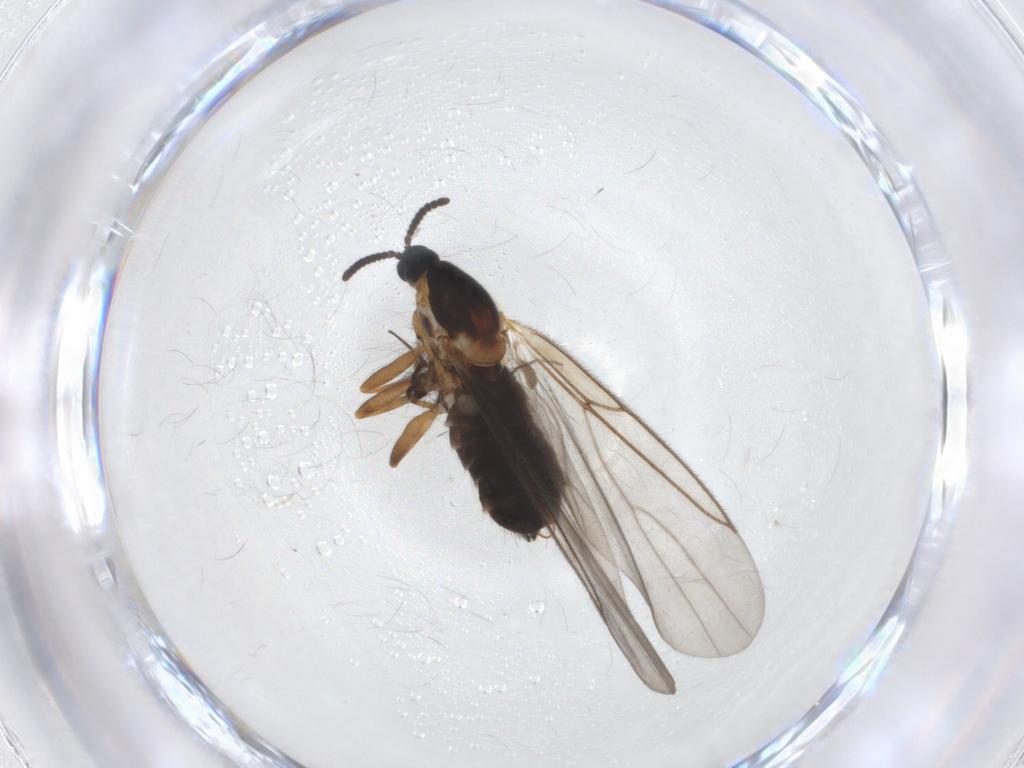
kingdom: Animalia
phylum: Arthropoda
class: Insecta
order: Diptera
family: Scatopsidae
